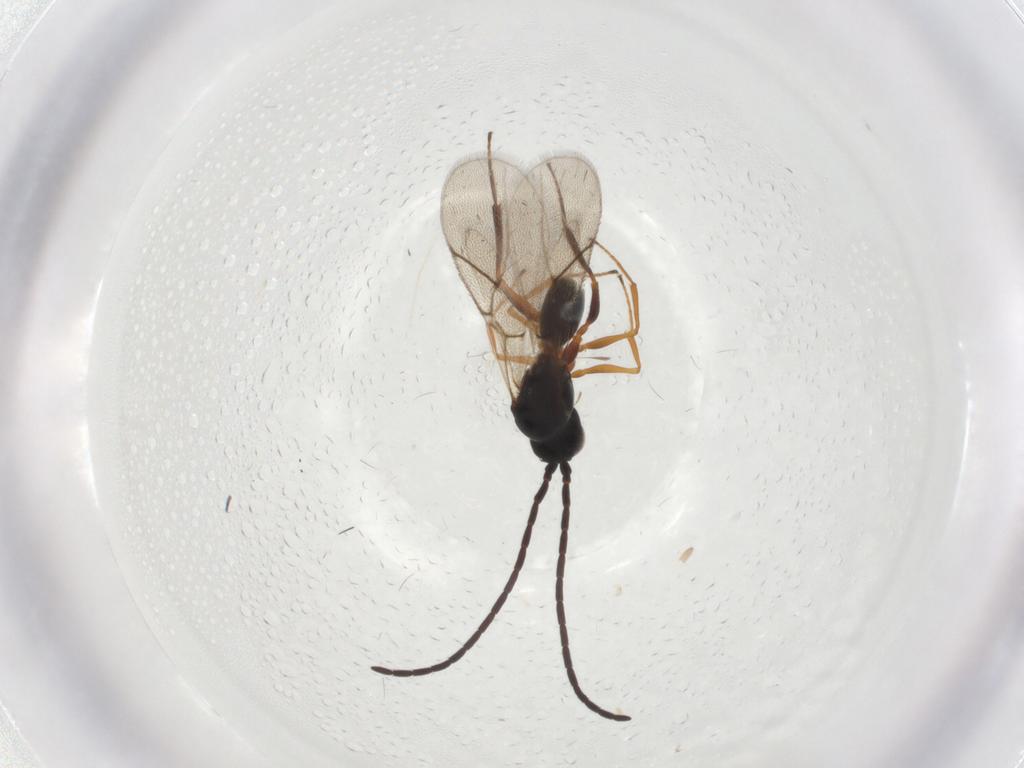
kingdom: Animalia
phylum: Arthropoda
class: Insecta
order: Hymenoptera
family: Figitidae
